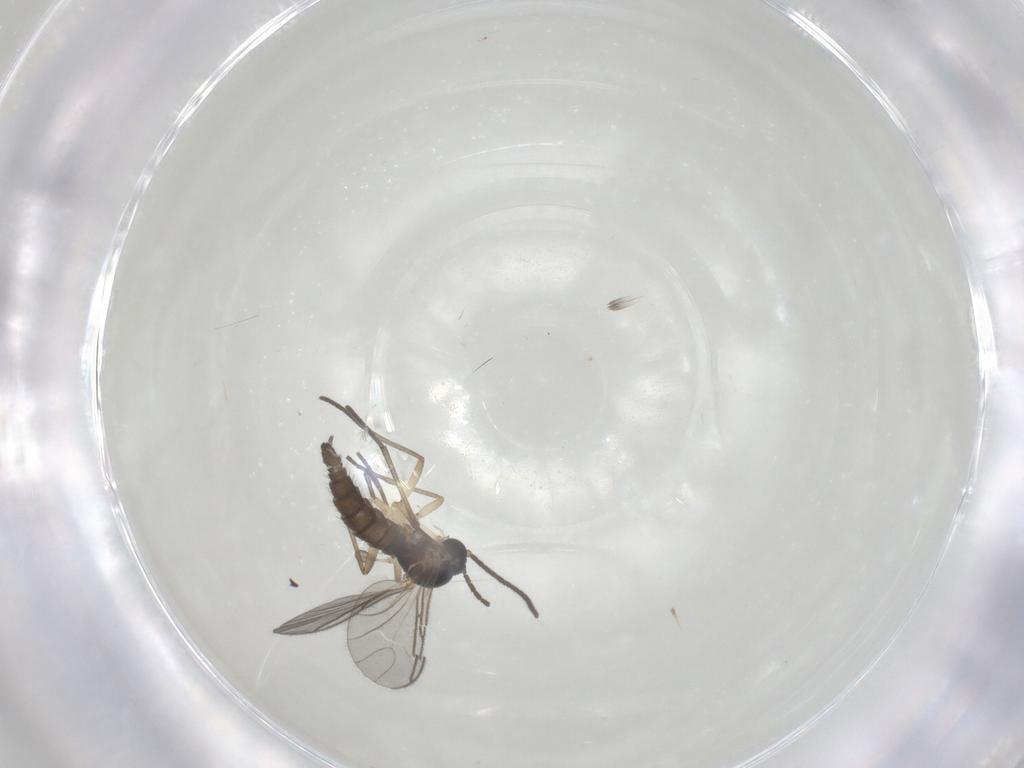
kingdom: Animalia
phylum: Arthropoda
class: Insecta
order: Diptera
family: Sciaridae
